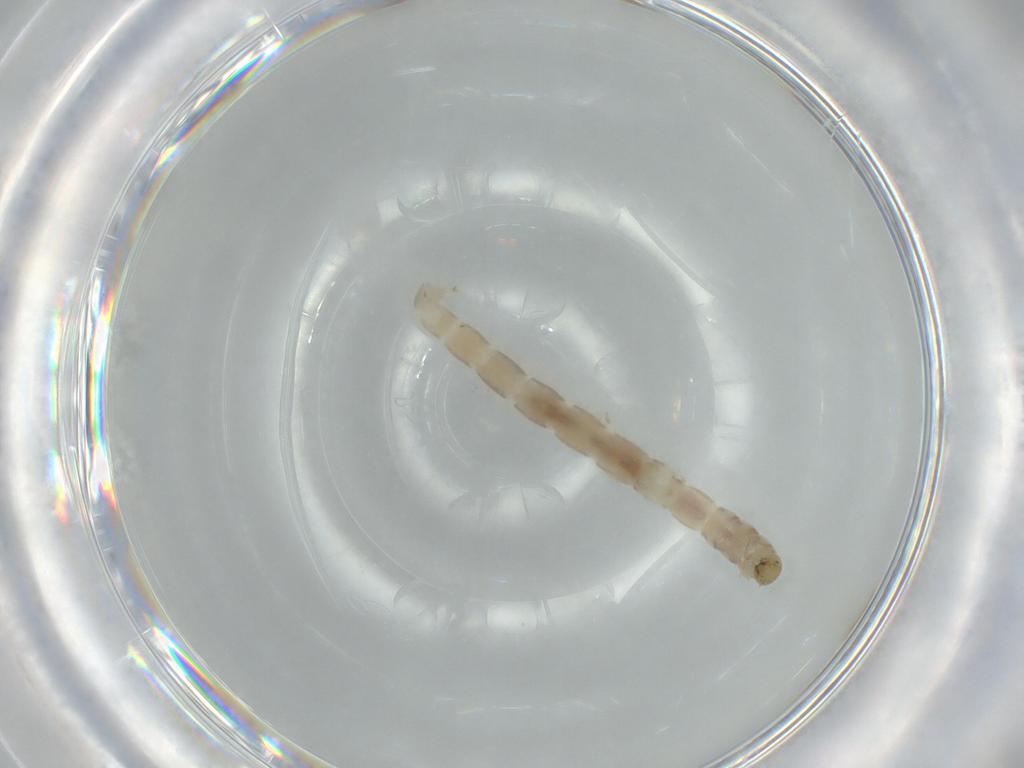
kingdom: Animalia
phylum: Arthropoda
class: Insecta
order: Diptera
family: Chironomidae
